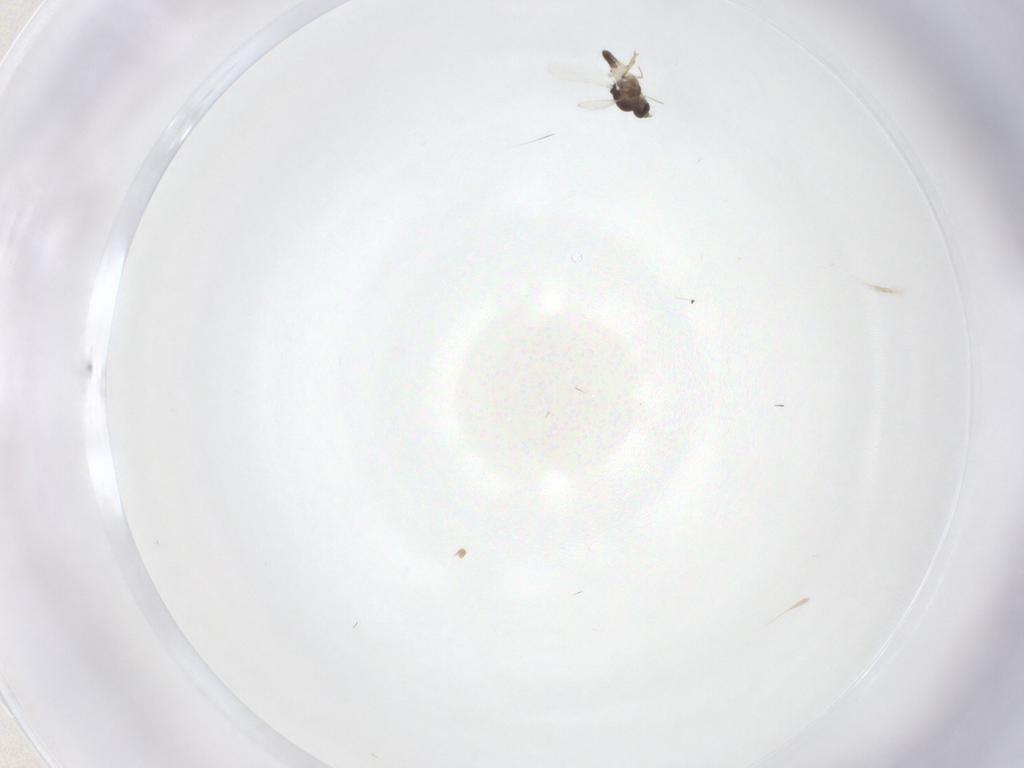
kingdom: Animalia
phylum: Arthropoda
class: Insecta
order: Diptera
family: Ceratopogonidae
